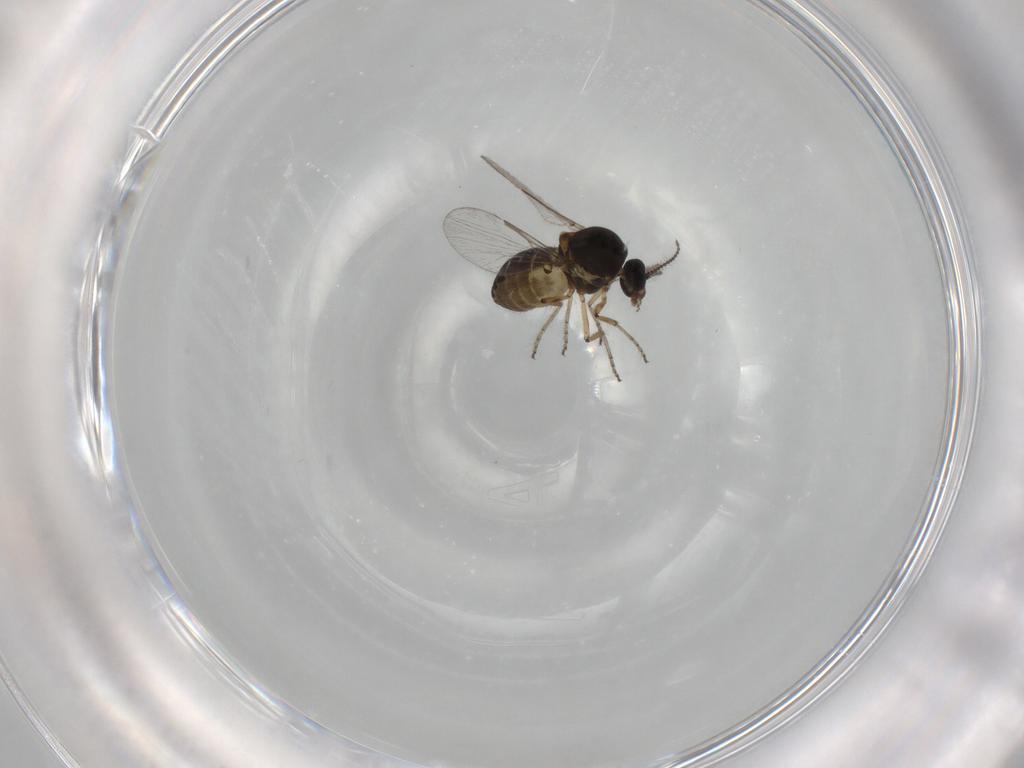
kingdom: Animalia
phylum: Arthropoda
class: Insecta
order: Diptera
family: Ceratopogonidae
